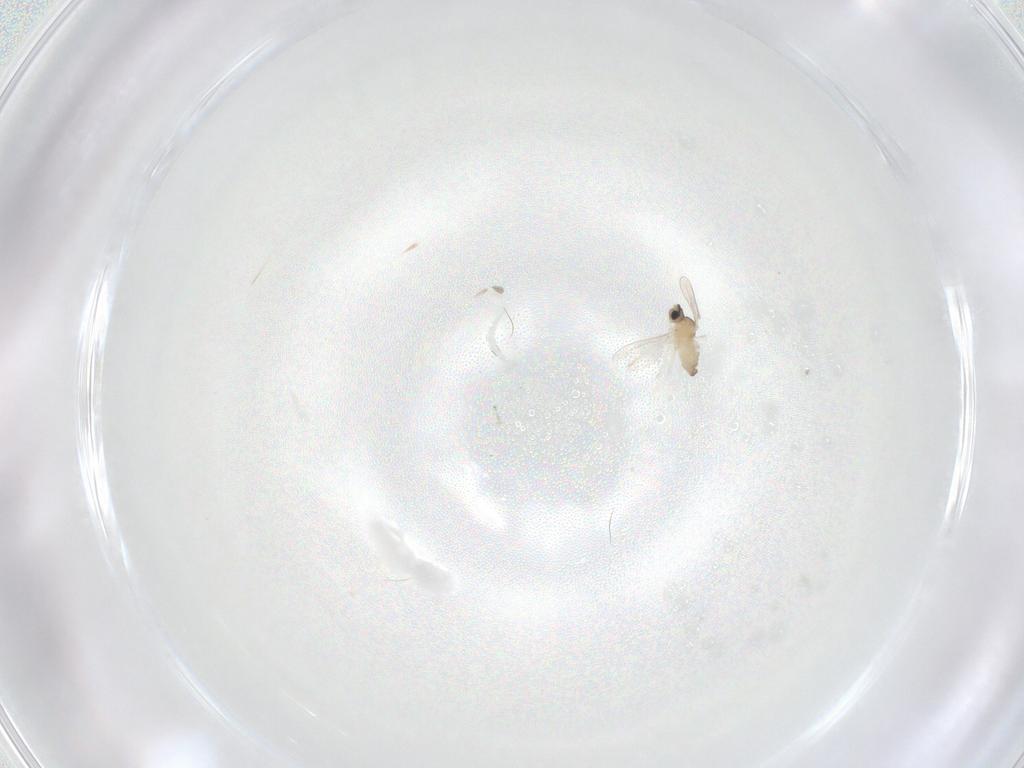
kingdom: Animalia
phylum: Arthropoda
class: Insecta
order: Diptera
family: Cecidomyiidae
